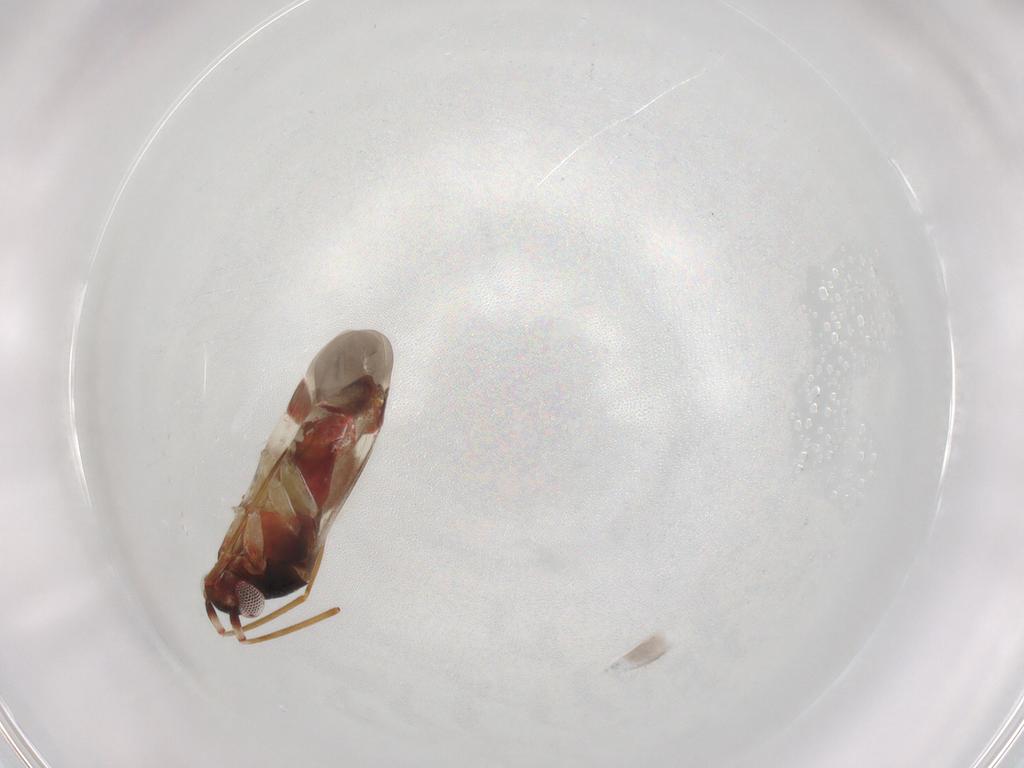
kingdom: Animalia
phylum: Arthropoda
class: Insecta
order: Hemiptera
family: Miridae
